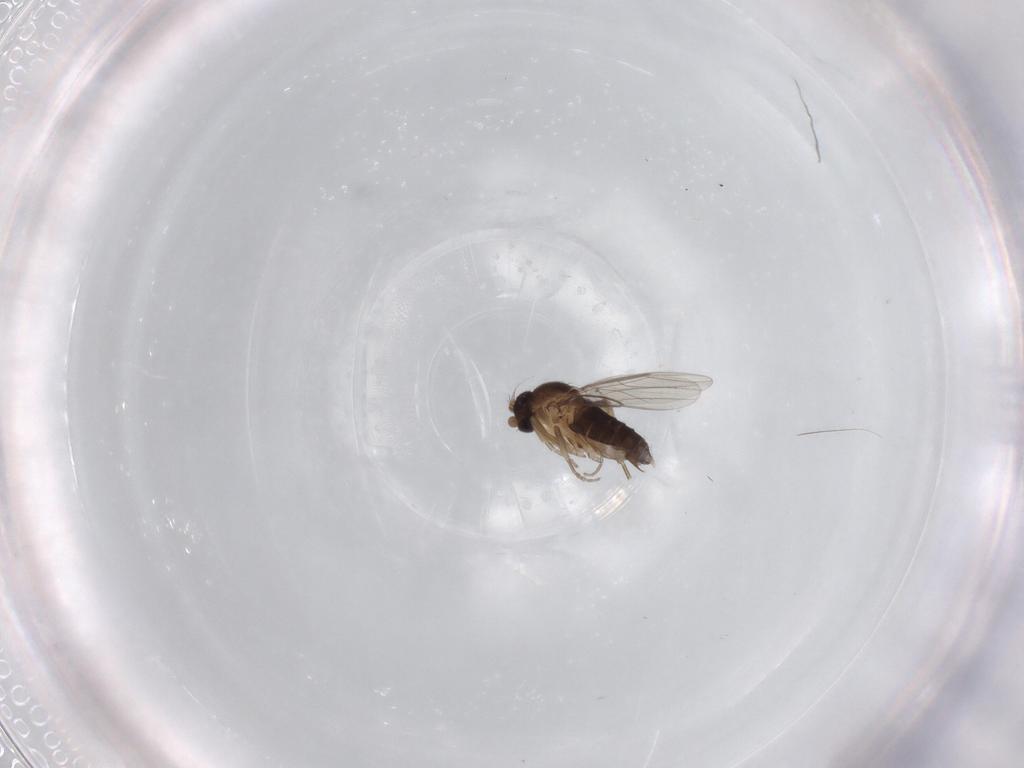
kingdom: Animalia
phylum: Arthropoda
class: Insecta
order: Diptera
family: Phoridae
